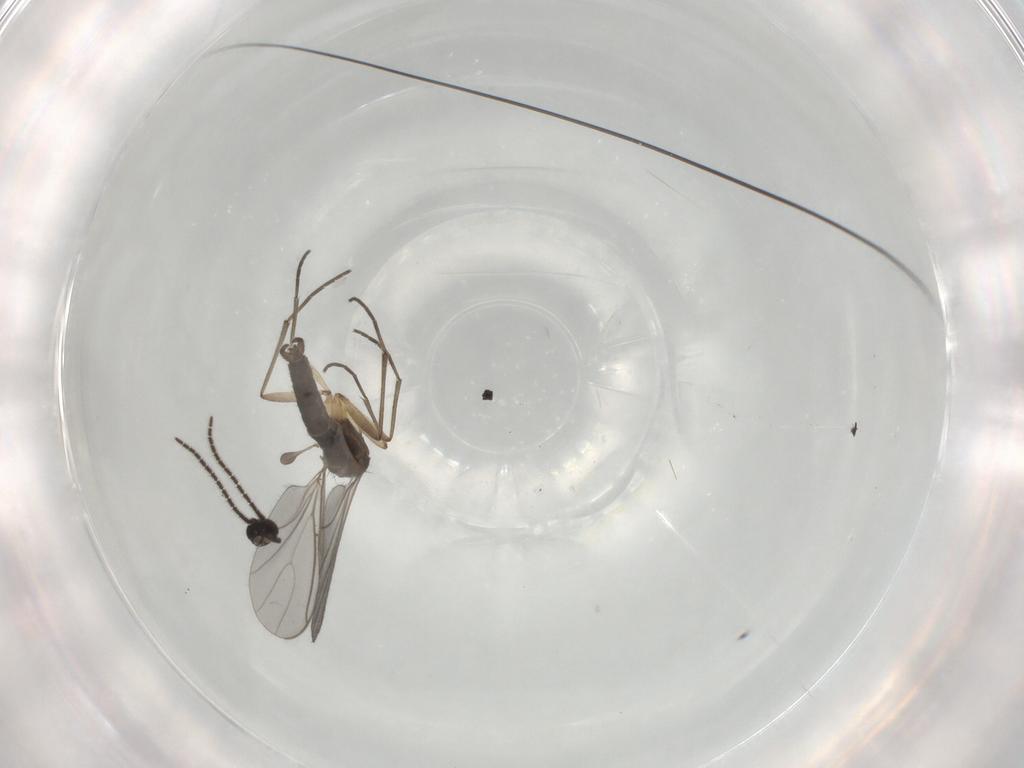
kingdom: Animalia
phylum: Arthropoda
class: Insecta
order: Diptera
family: Sciaridae
